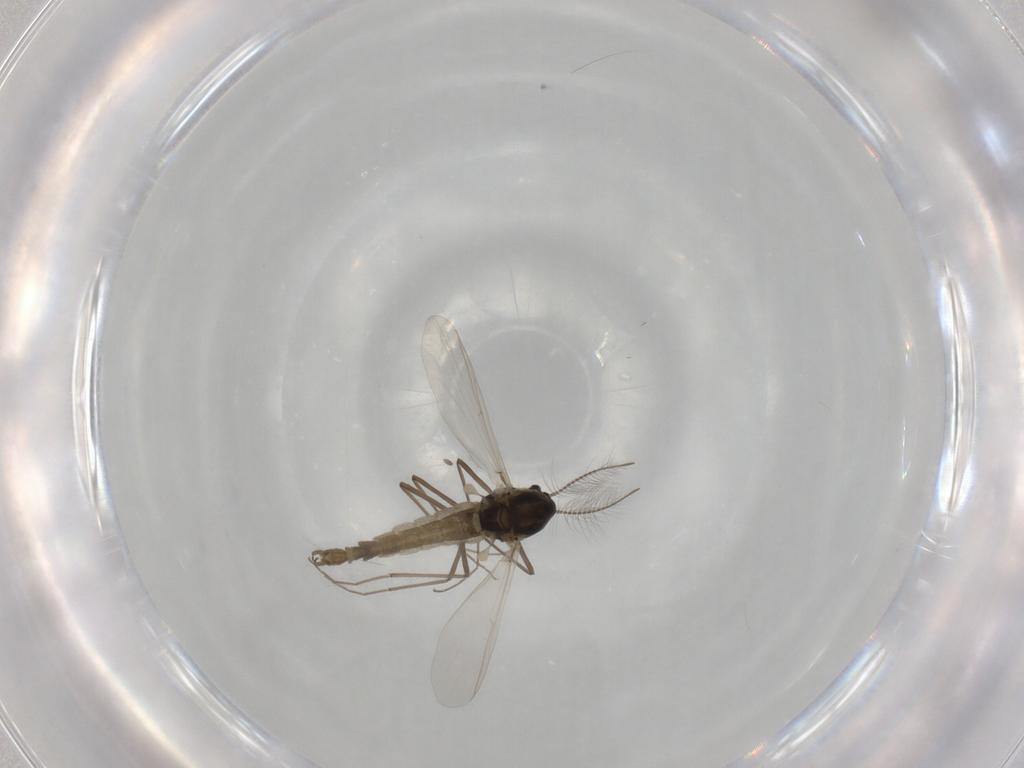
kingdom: Animalia
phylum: Arthropoda
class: Insecta
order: Diptera
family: Chironomidae
